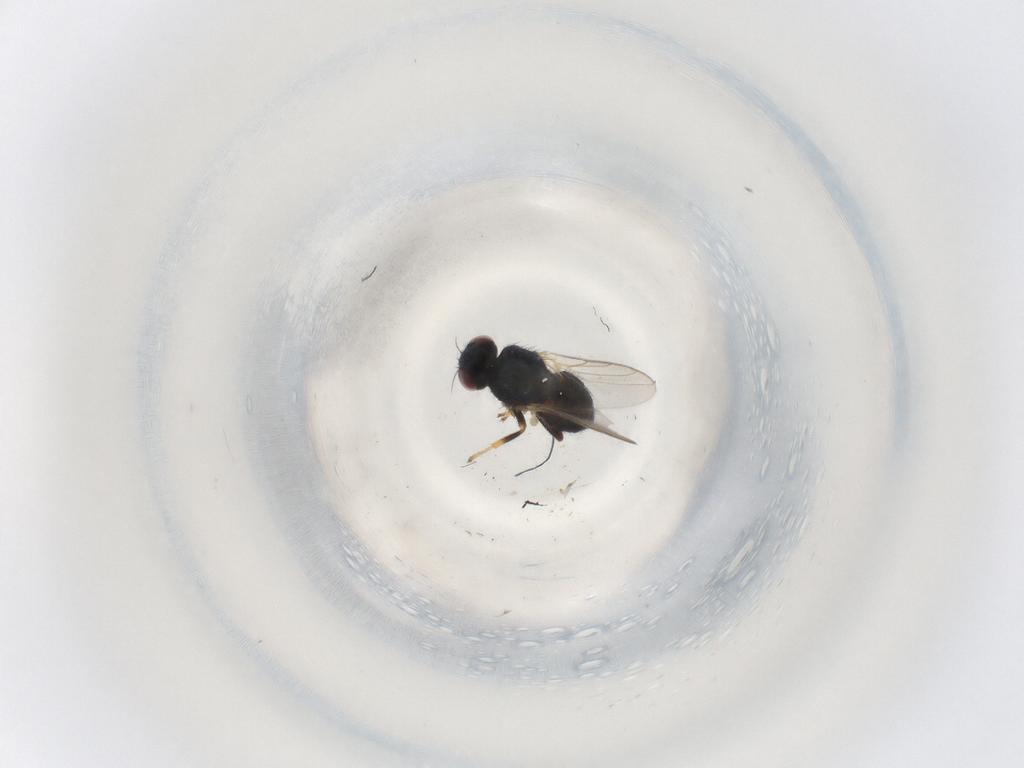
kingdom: Animalia
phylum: Arthropoda
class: Insecta
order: Diptera
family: Chloropidae
